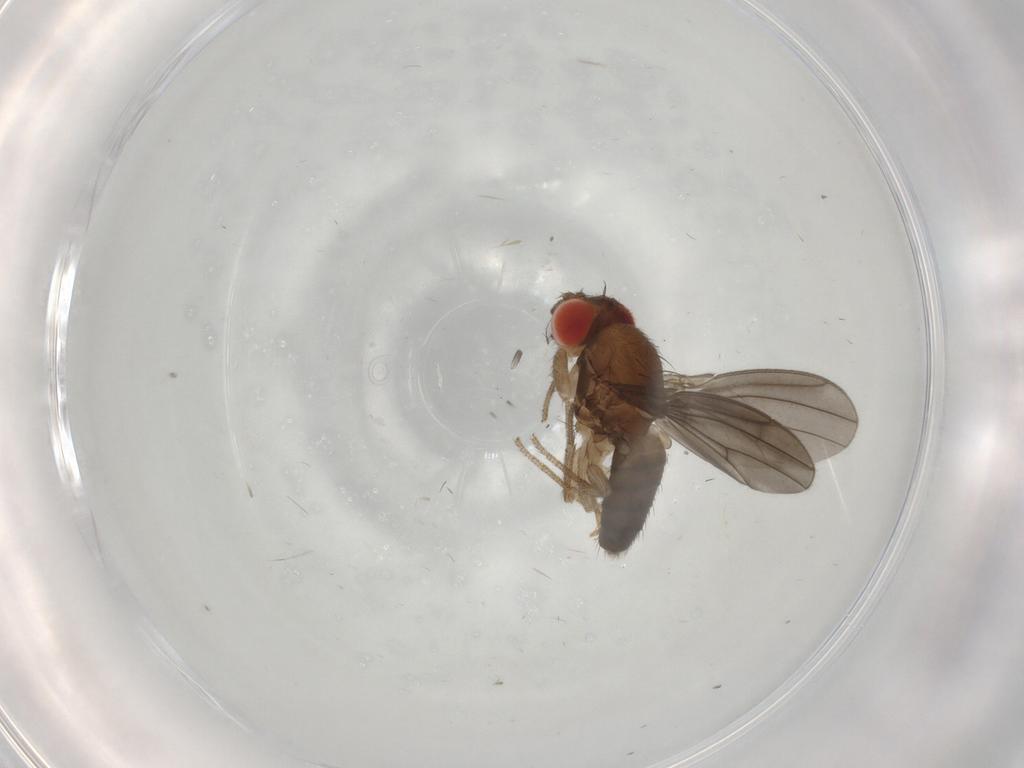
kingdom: Animalia
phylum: Arthropoda
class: Insecta
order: Diptera
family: Drosophilidae
